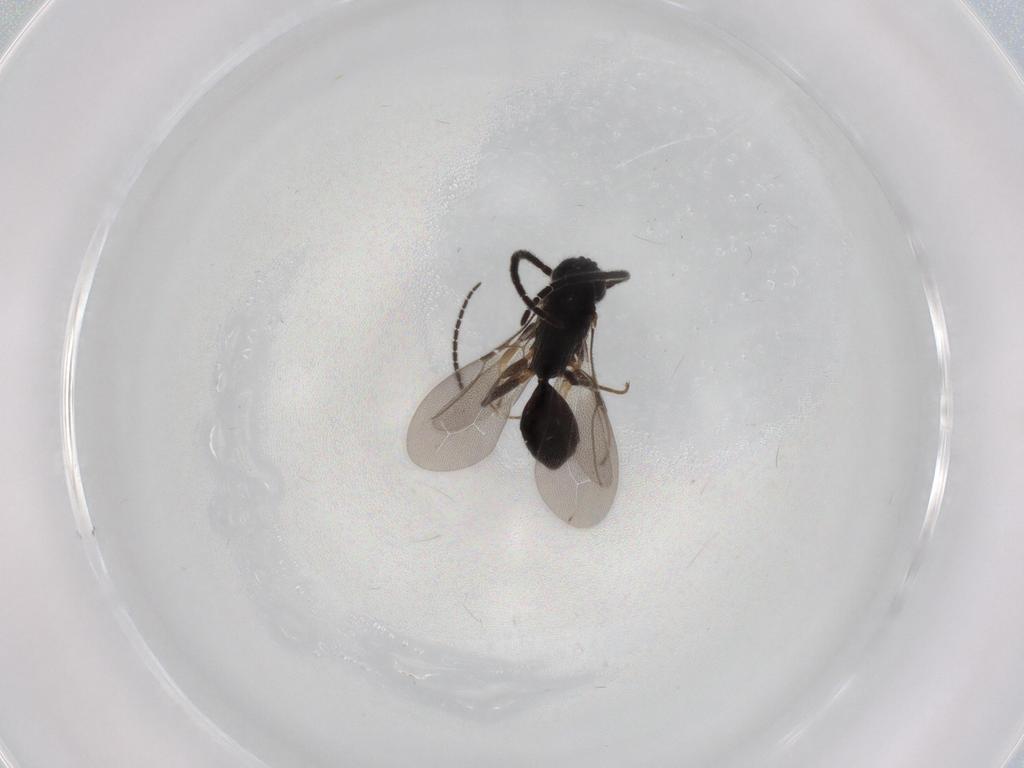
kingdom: Animalia
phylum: Arthropoda
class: Insecta
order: Hymenoptera
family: Bethylidae
